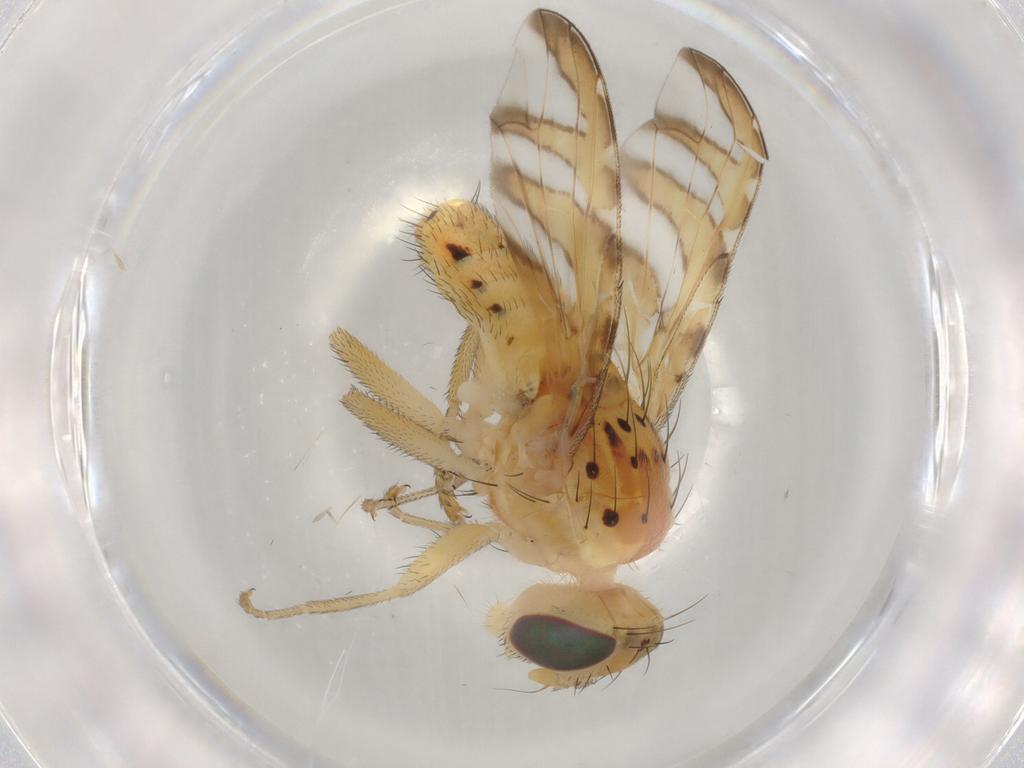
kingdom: Animalia
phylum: Arthropoda
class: Insecta
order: Diptera
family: Tephritidae
